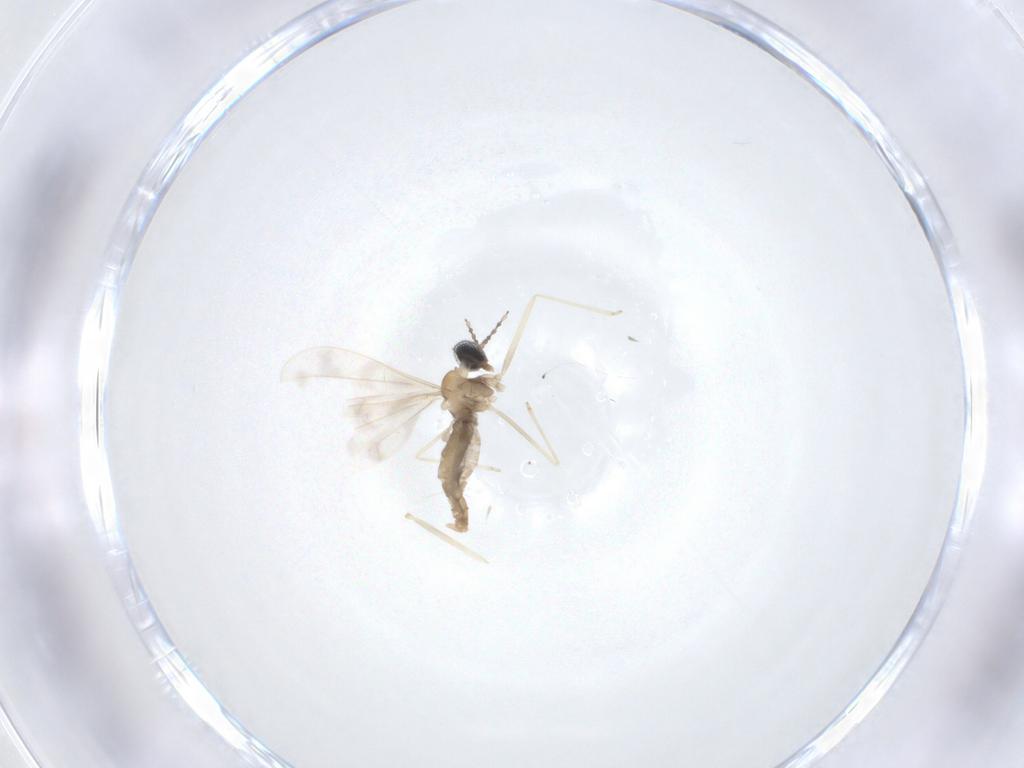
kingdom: Animalia
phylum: Arthropoda
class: Insecta
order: Diptera
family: Cecidomyiidae
